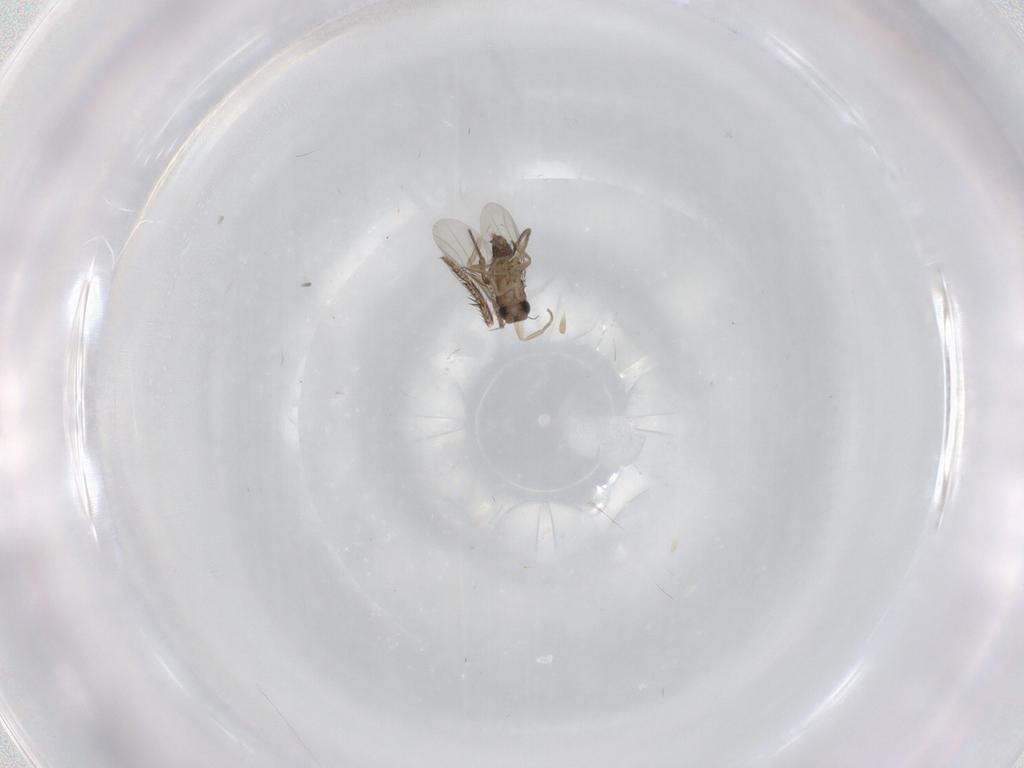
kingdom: Animalia
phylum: Arthropoda
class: Insecta
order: Diptera
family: Phoridae
